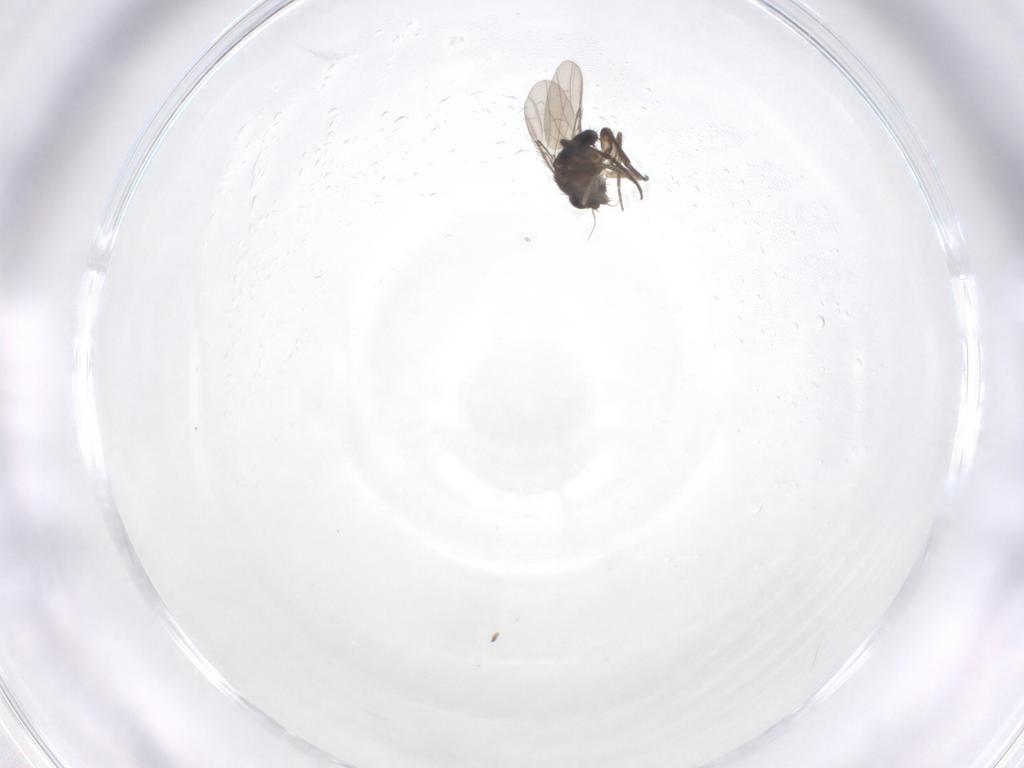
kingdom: Animalia
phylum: Arthropoda
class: Insecta
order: Diptera
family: Phoridae
